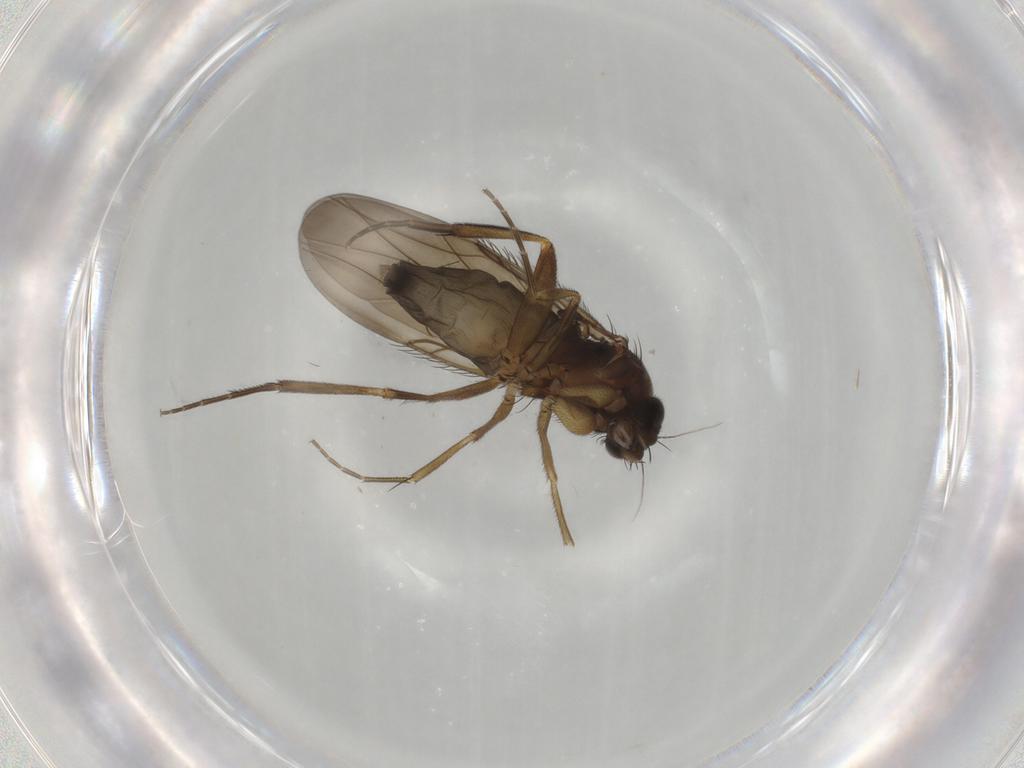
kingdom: Animalia
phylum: Arthropoda
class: Insecta
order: Diptera
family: Phoridae
